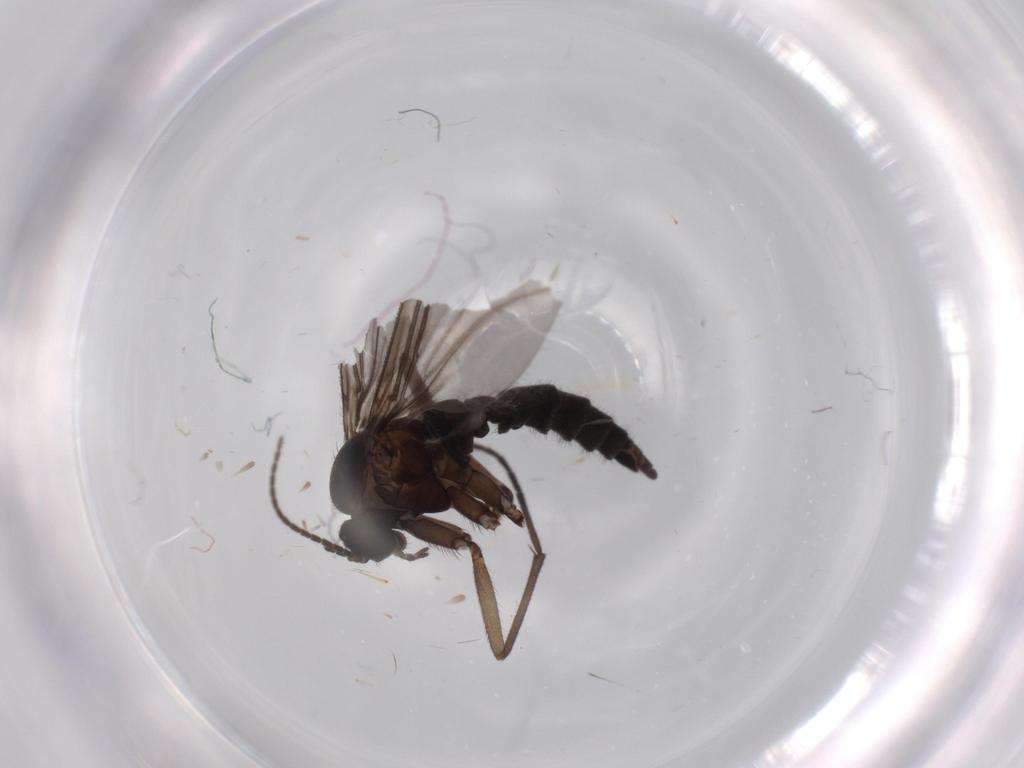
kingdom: Animalia
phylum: Arthropoda
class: Insecta
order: Diptera
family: Sciaridae
